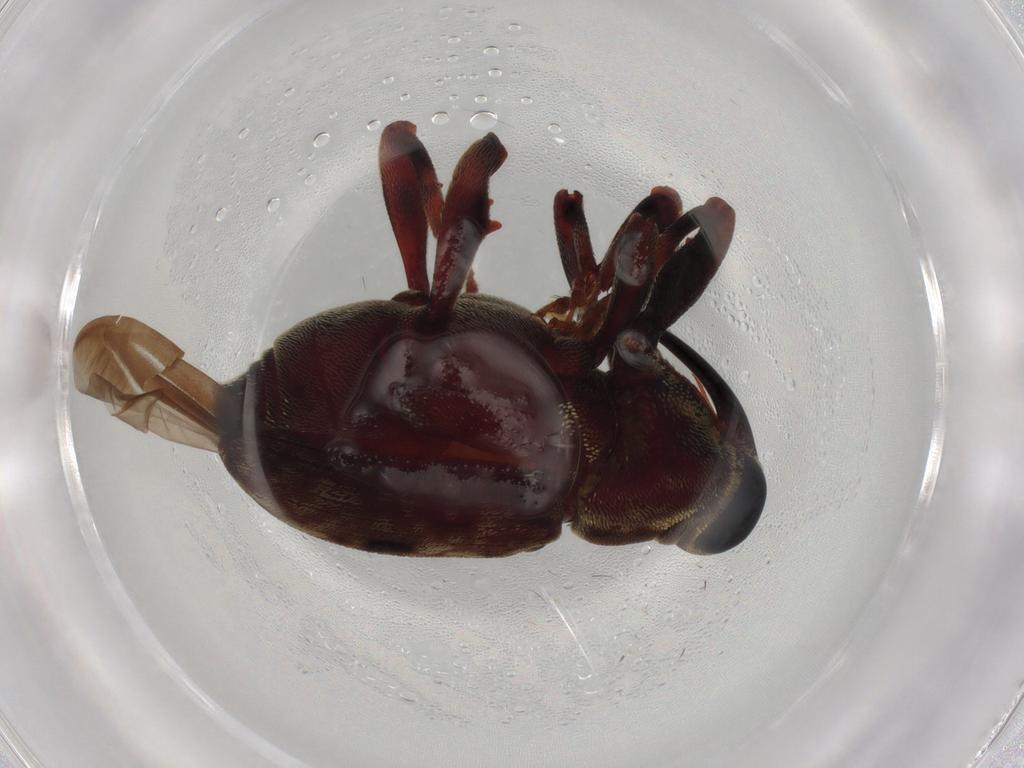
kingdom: Animalia
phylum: Arthropoda
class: Insecta
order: Coleoptera
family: Curculionidae
